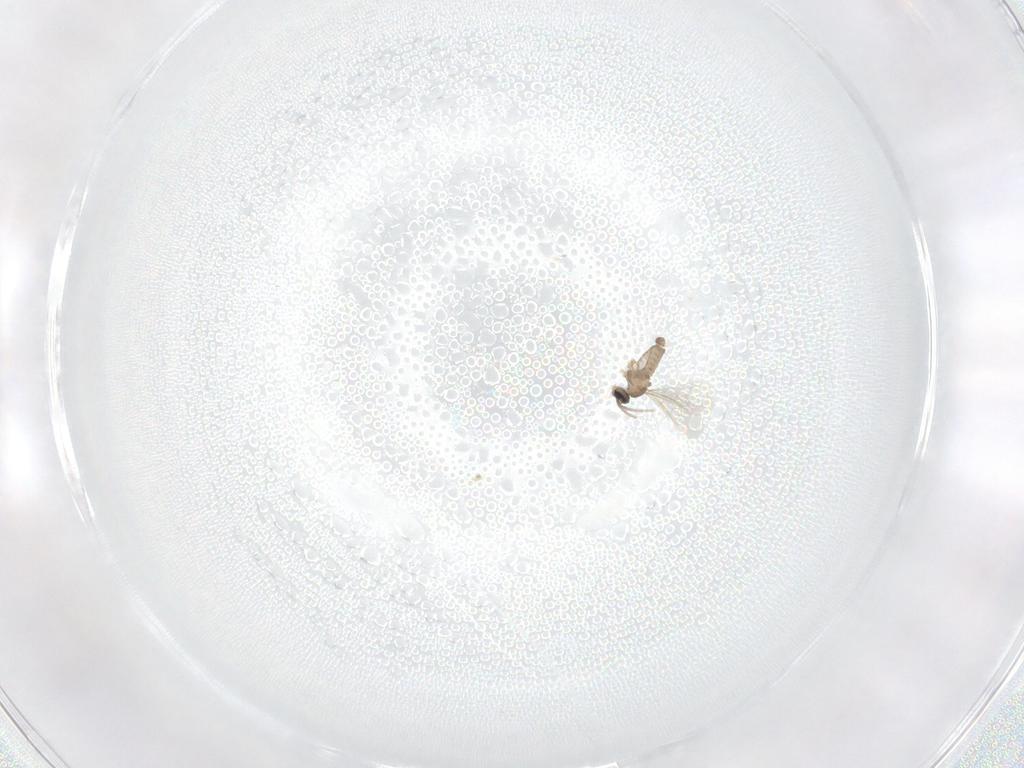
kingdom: Animalia
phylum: Arthropoda
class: Insecta
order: Diptera
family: Cecidomyiidae
